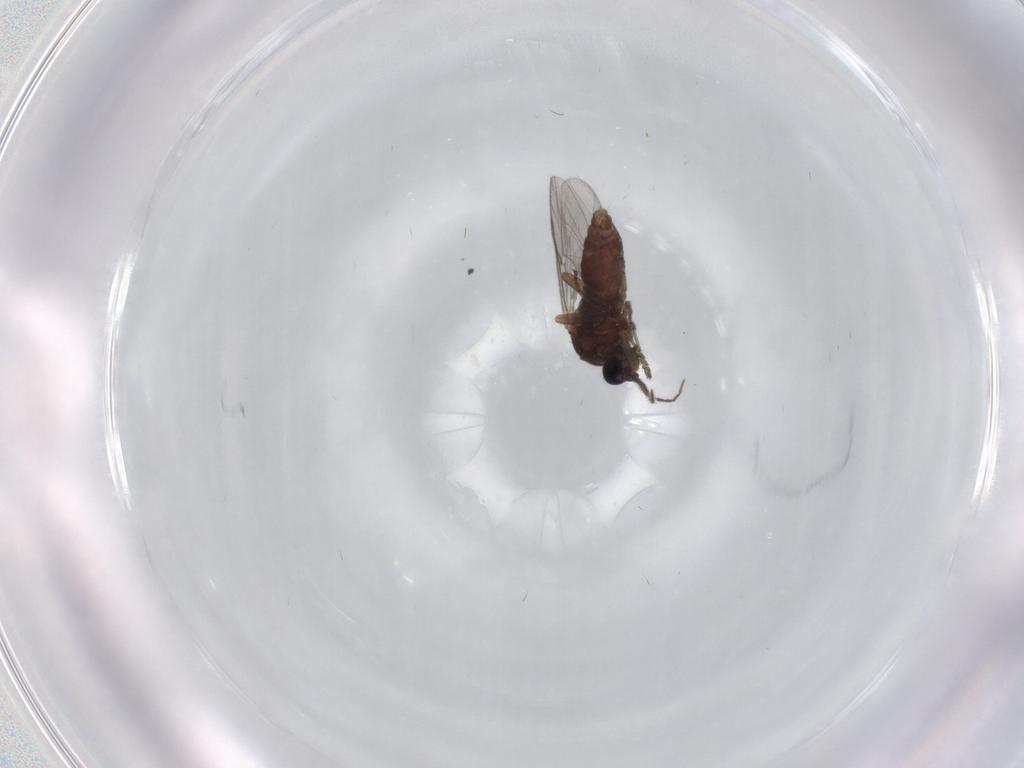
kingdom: Animalia
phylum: Arthropoda
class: Insecta
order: Diptera
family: Ceratopogonidae
